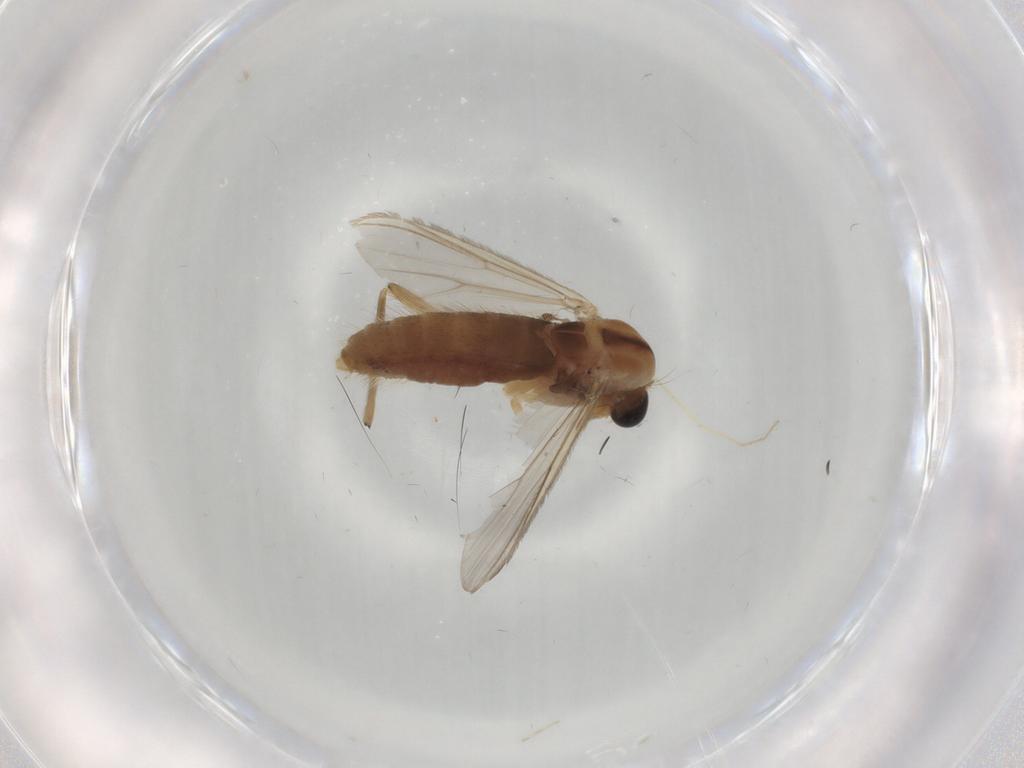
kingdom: Animalia
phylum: Arthropoda
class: Insecta
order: Diptera
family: Chironomidae
